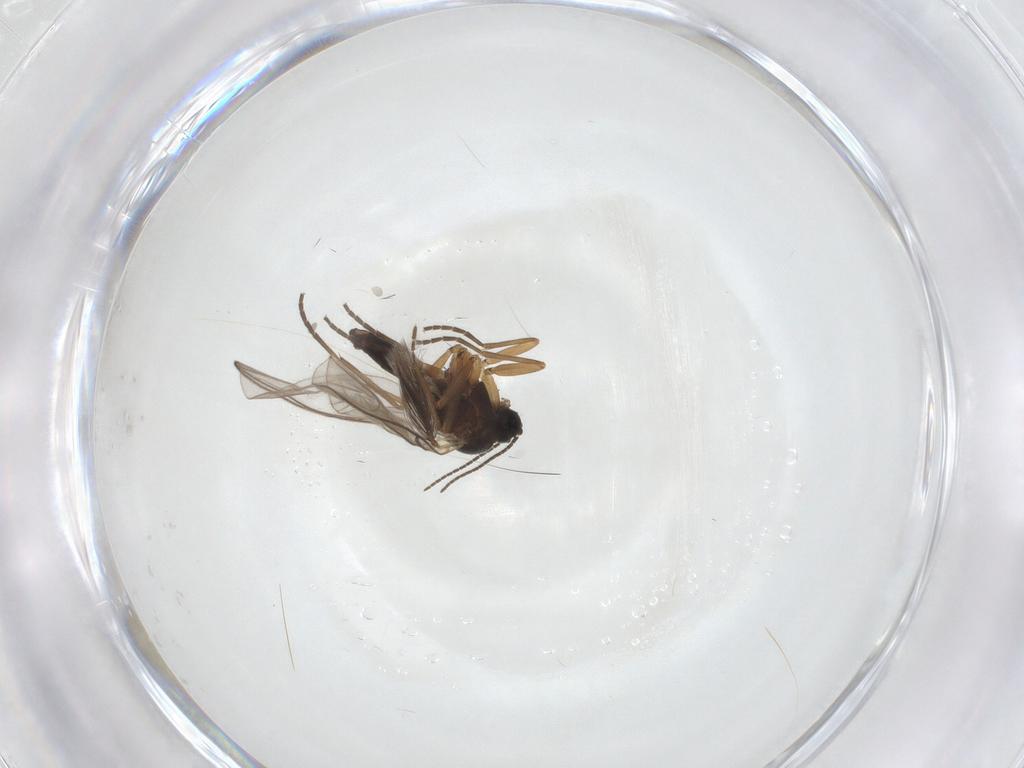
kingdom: Animalia
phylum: Arthropoda
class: Insecta
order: Diptera
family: Sciaridae
